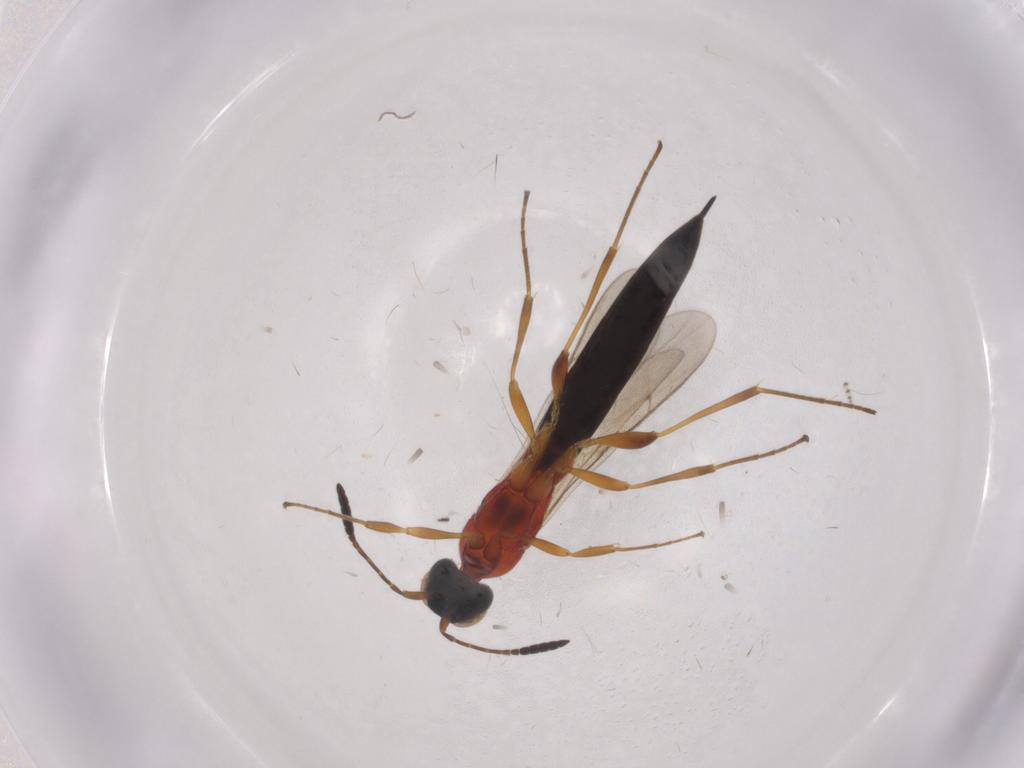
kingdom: Animalia
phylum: Arthropoda
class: Insecta
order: Hymenoptera
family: Scelionidae
